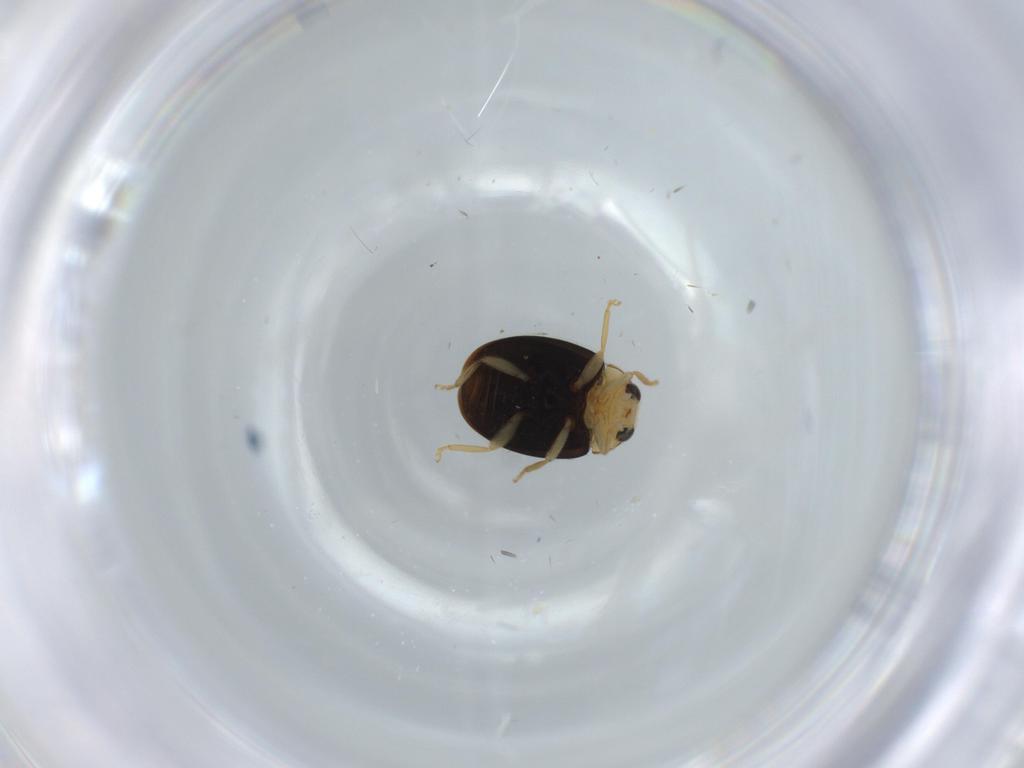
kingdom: Animalia
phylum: Arthropoda
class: Insecta
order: Coleoptera
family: Coccinellidae
